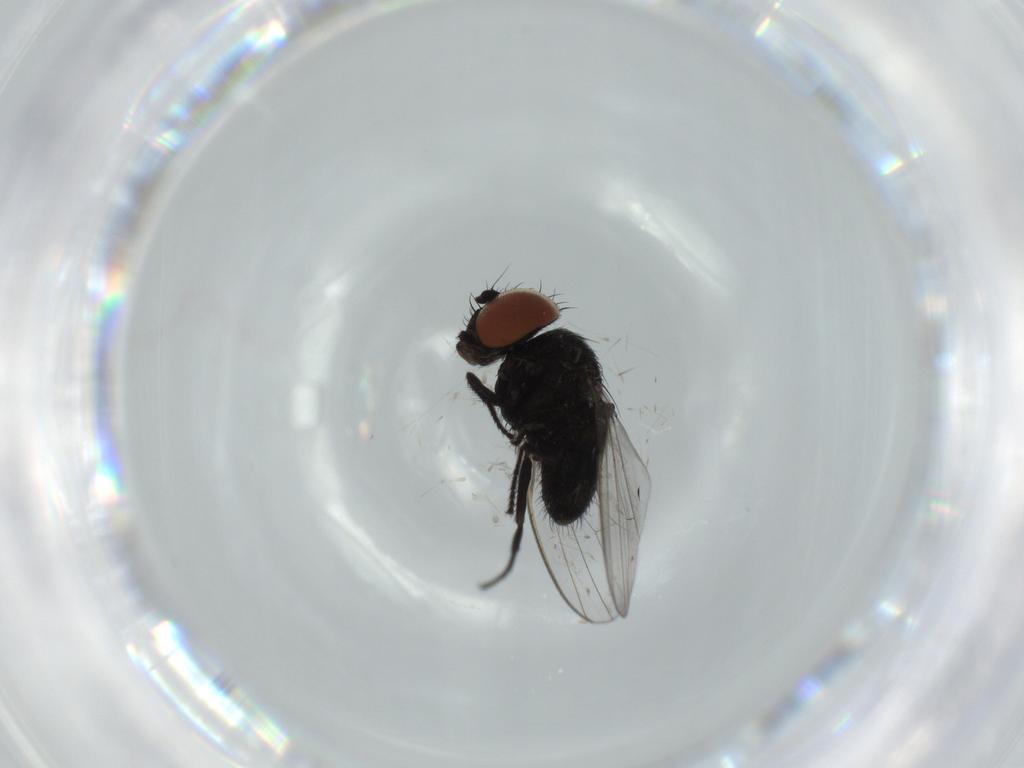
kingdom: Animalia
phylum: Arthropoda
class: Insecta
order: Diptera
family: Milichiidae
